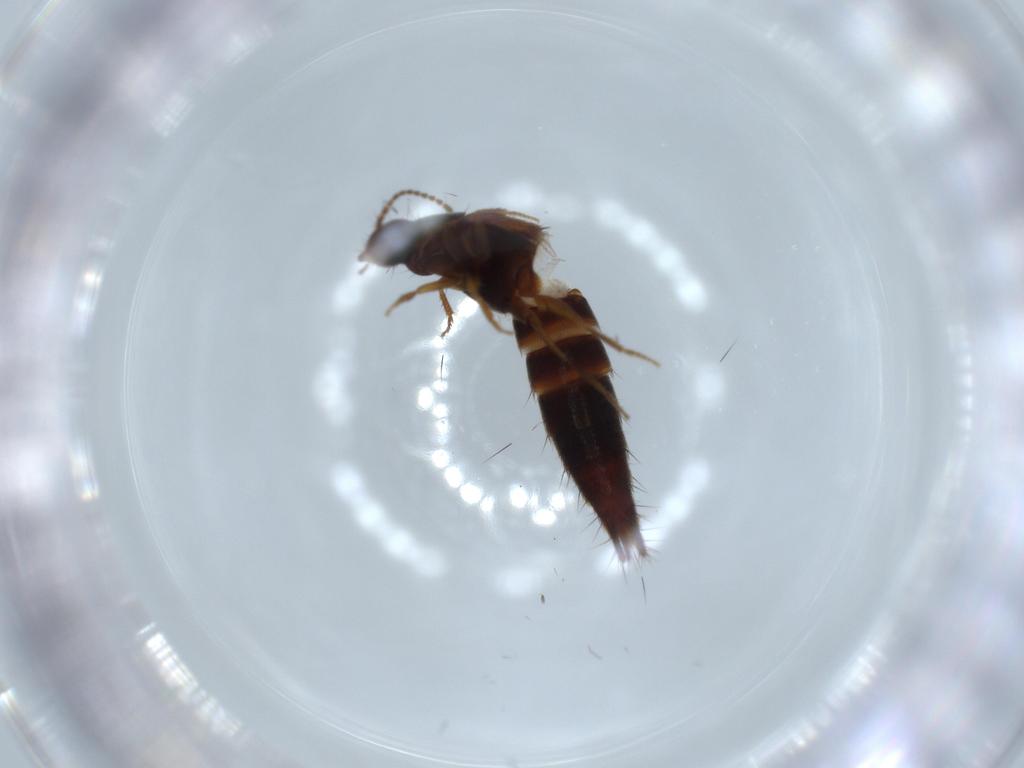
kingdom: Animalia
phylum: Arthropoda
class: Insecta
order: Coleoptera
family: Staphylinidae
